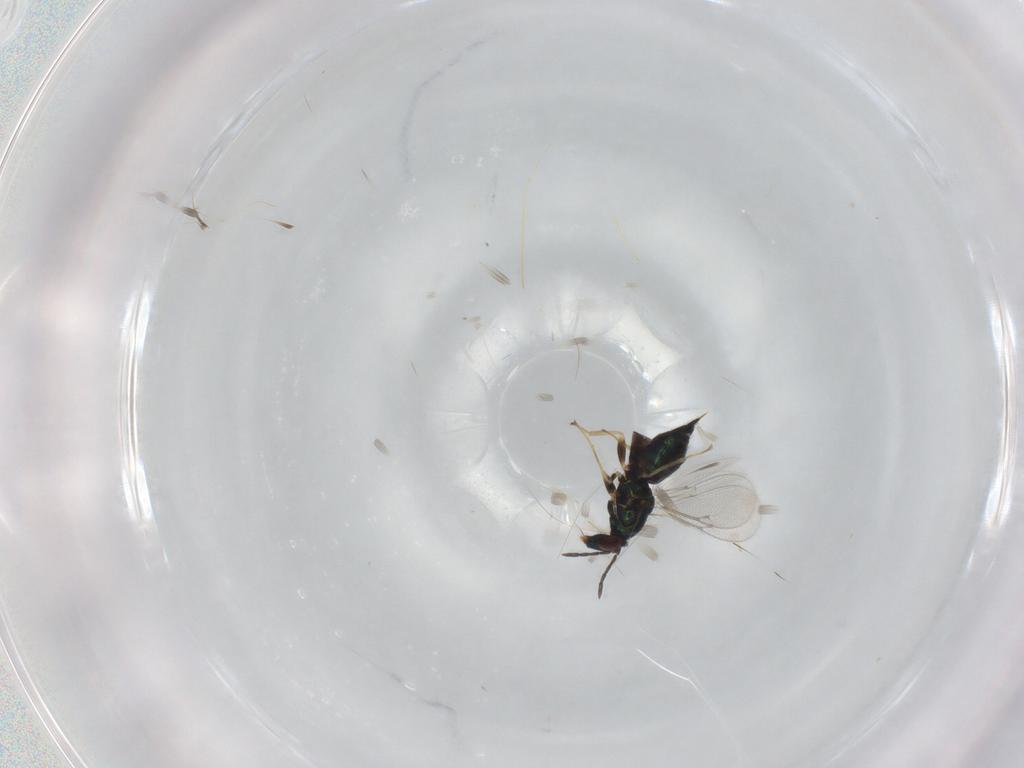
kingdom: Animalia
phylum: Arthropoda
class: Insecta
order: Hymenoptera
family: Eulophidae
